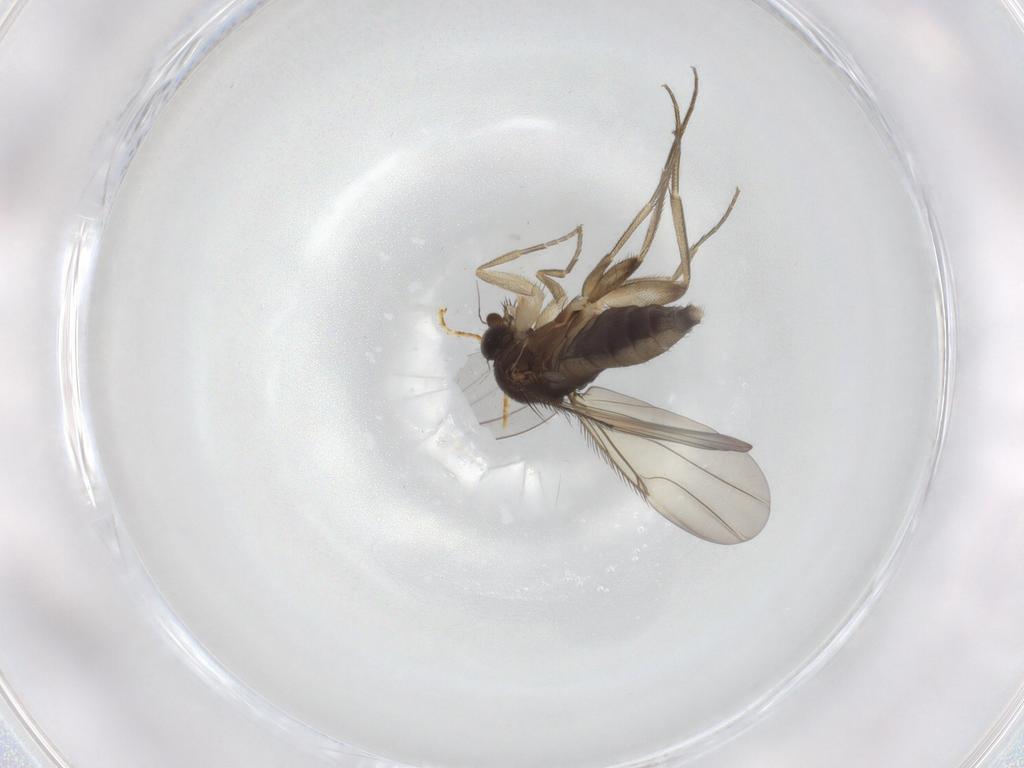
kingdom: Animalia
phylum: Arthropoda
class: Insecta
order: Diptera
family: Phoridae
